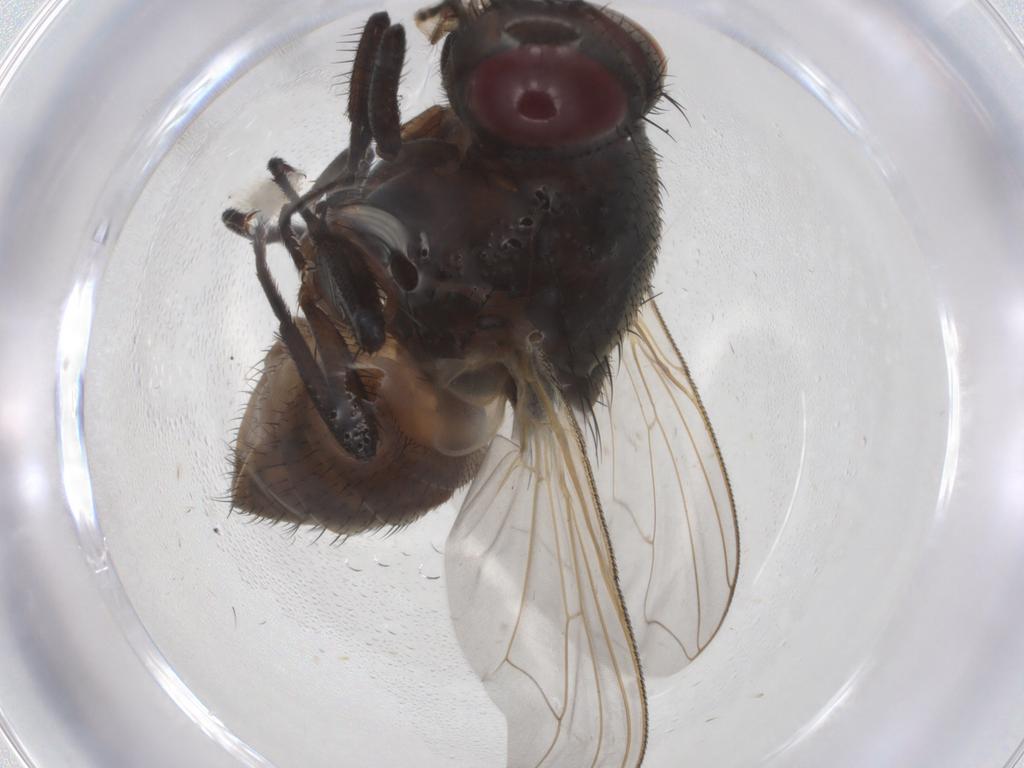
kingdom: Animalia
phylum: Arthropoda
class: Insecta
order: Diptera
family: Muscidae
